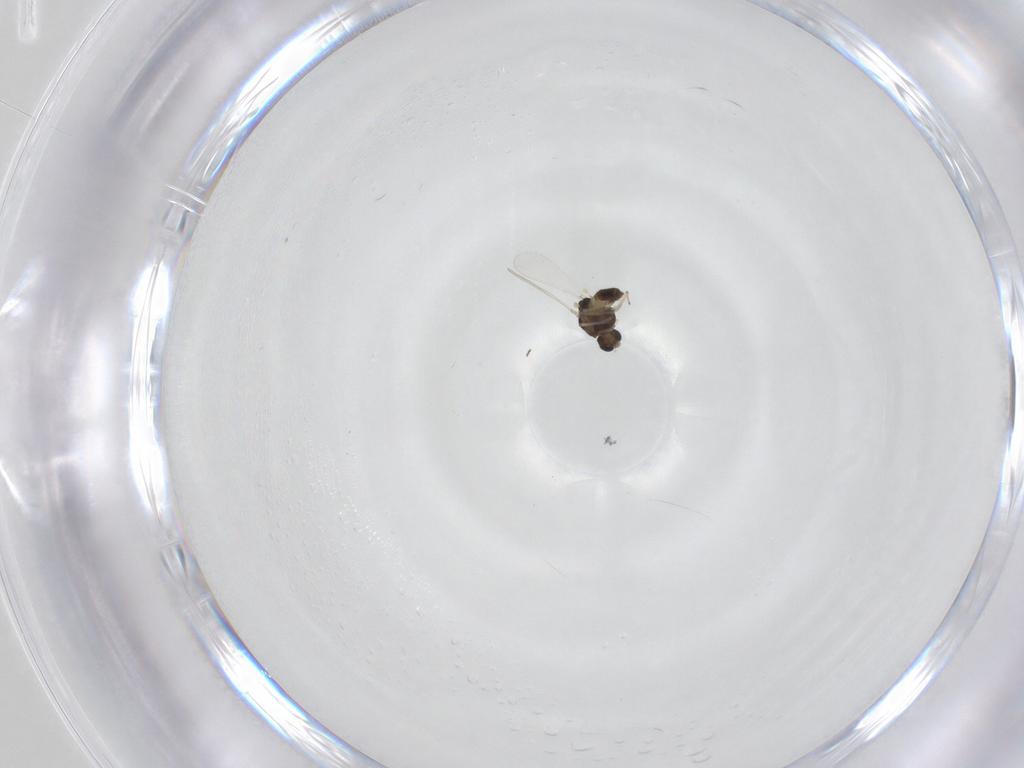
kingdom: Animalia
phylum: Arthropoda
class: Insecta
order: Diptera
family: Chironomidae
